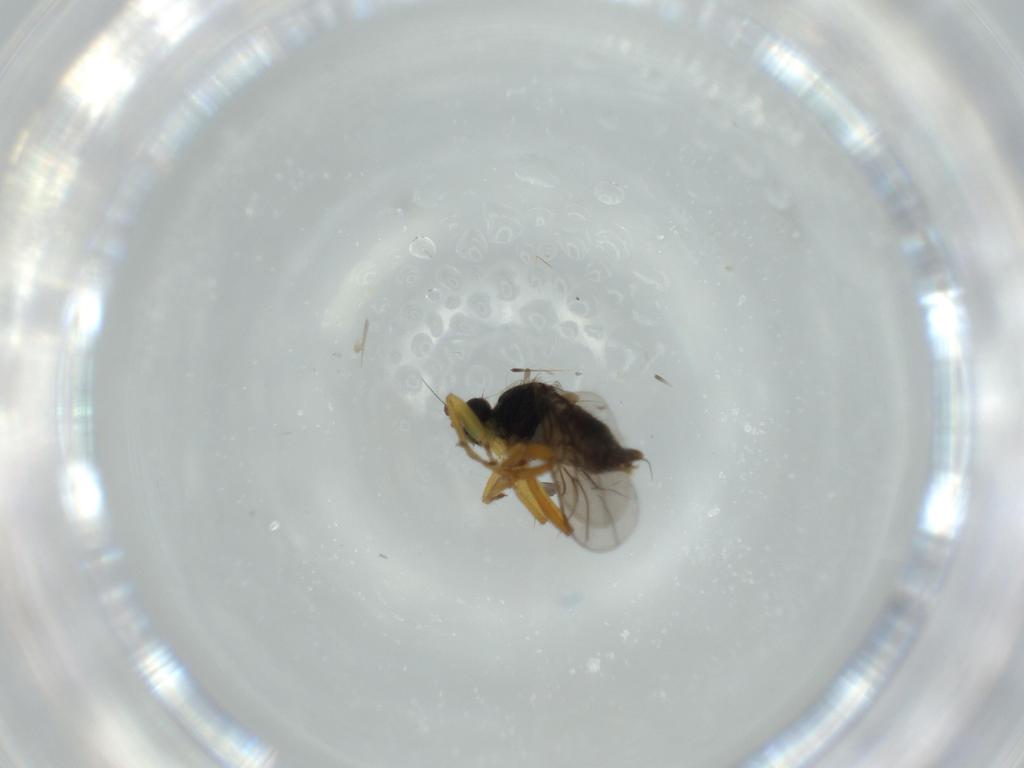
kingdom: Animalia
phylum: Arthropoda
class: Insecta
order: Diptera
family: Hybotidae
